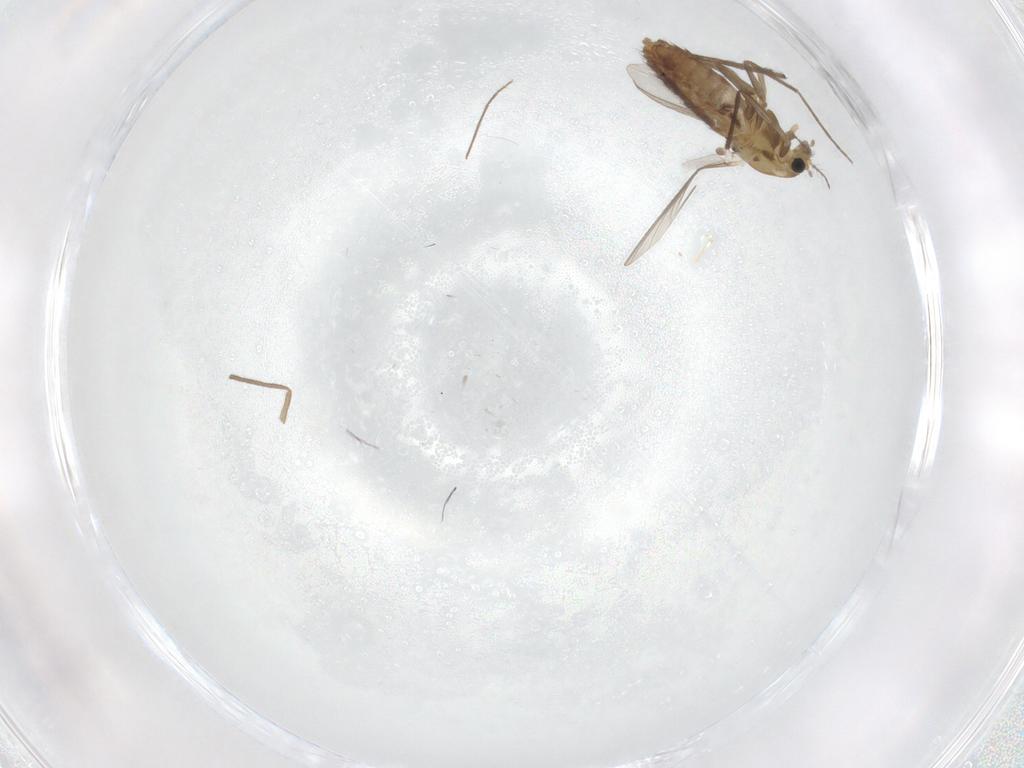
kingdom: Animalia
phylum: Arthropoda
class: Insecta
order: Diptera
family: Chironomidae
